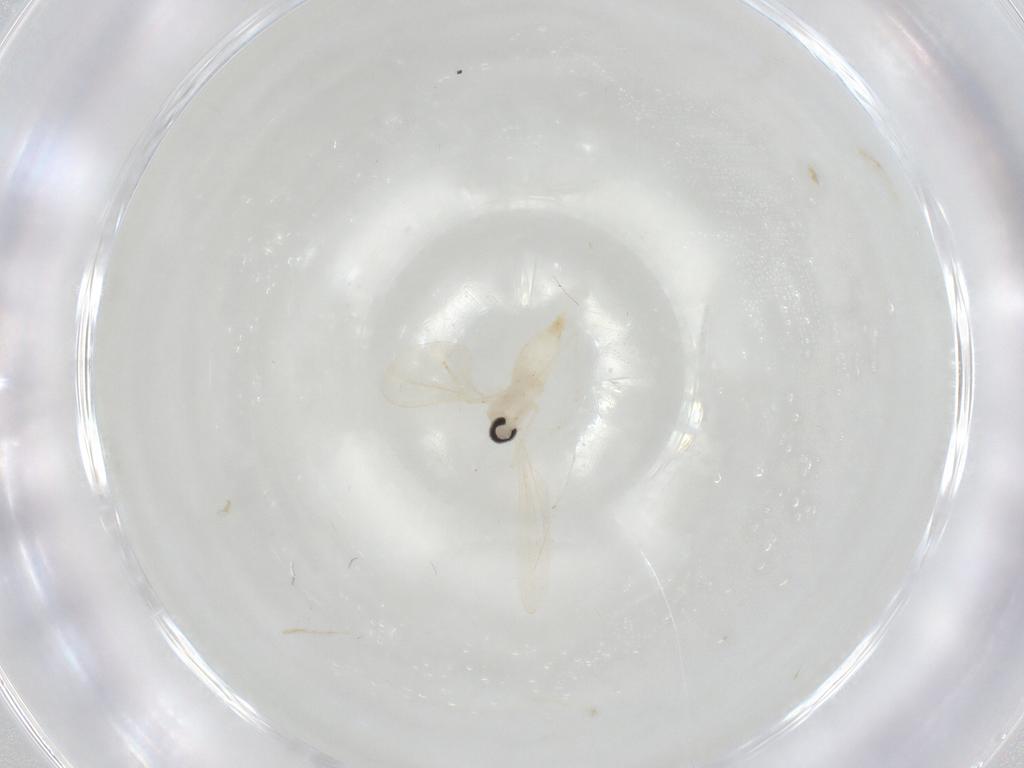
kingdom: Animalia
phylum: Arthropoda
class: Insecta
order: Diptera
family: Cecidomyiidae
